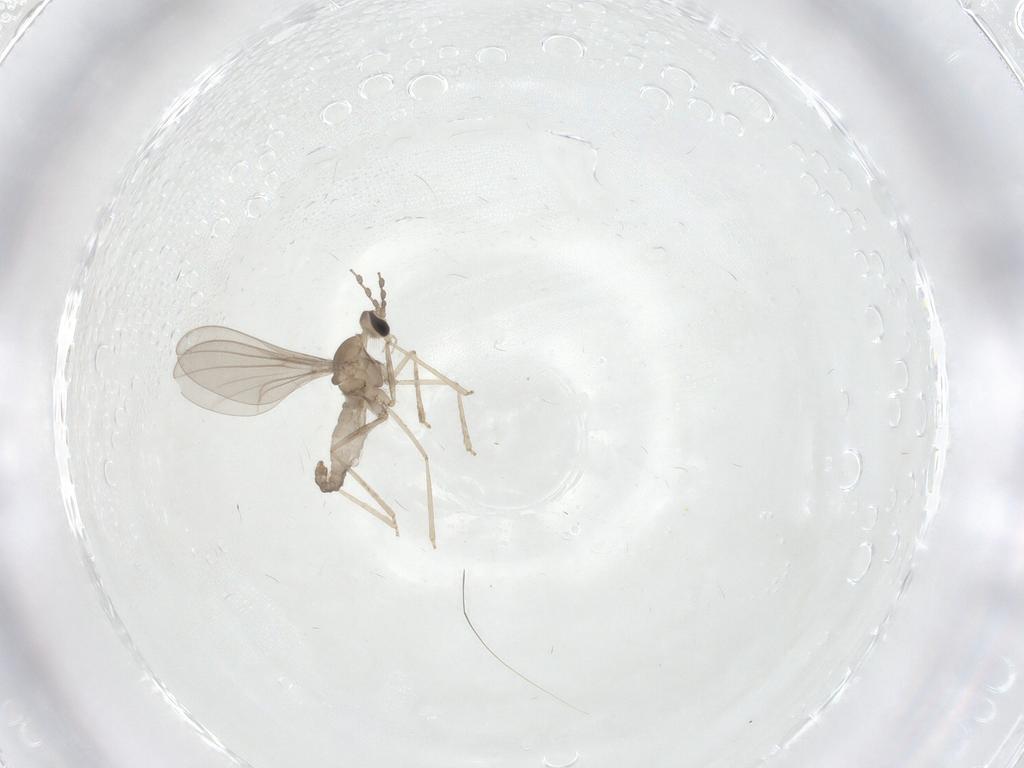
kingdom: Animalia
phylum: Arthropoda
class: Insecta
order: Diptera
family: Cecidomyiidae
